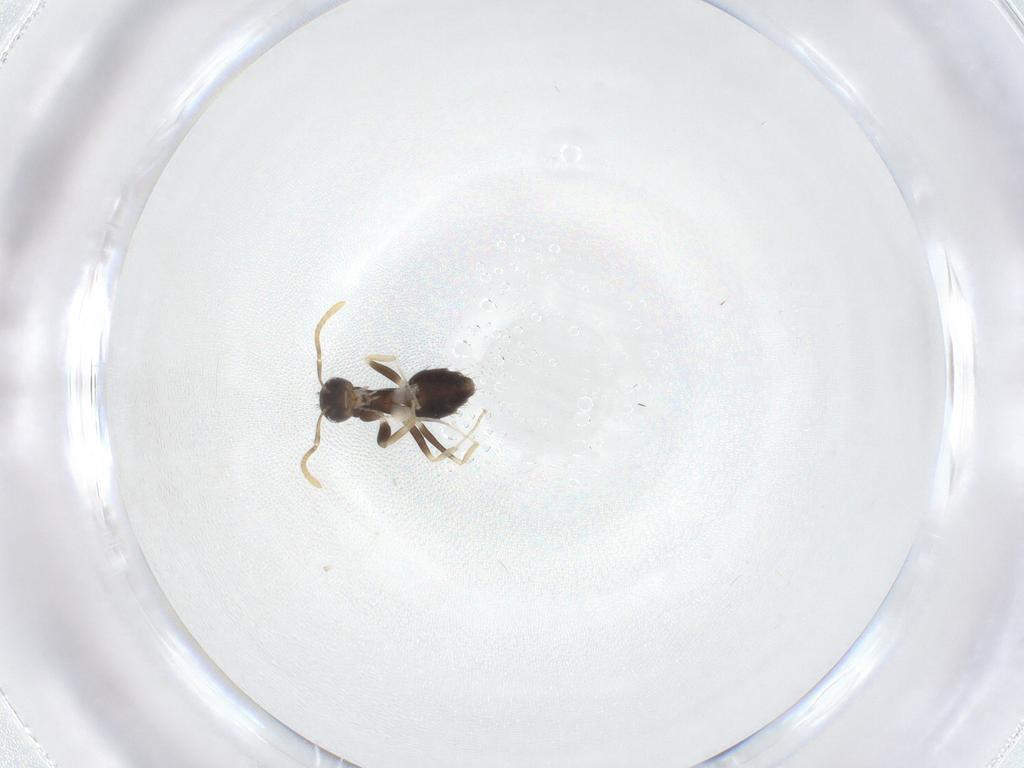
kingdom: Animalia
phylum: Arthropoda
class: Insecta
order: Hymenoptera
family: Formicidae
